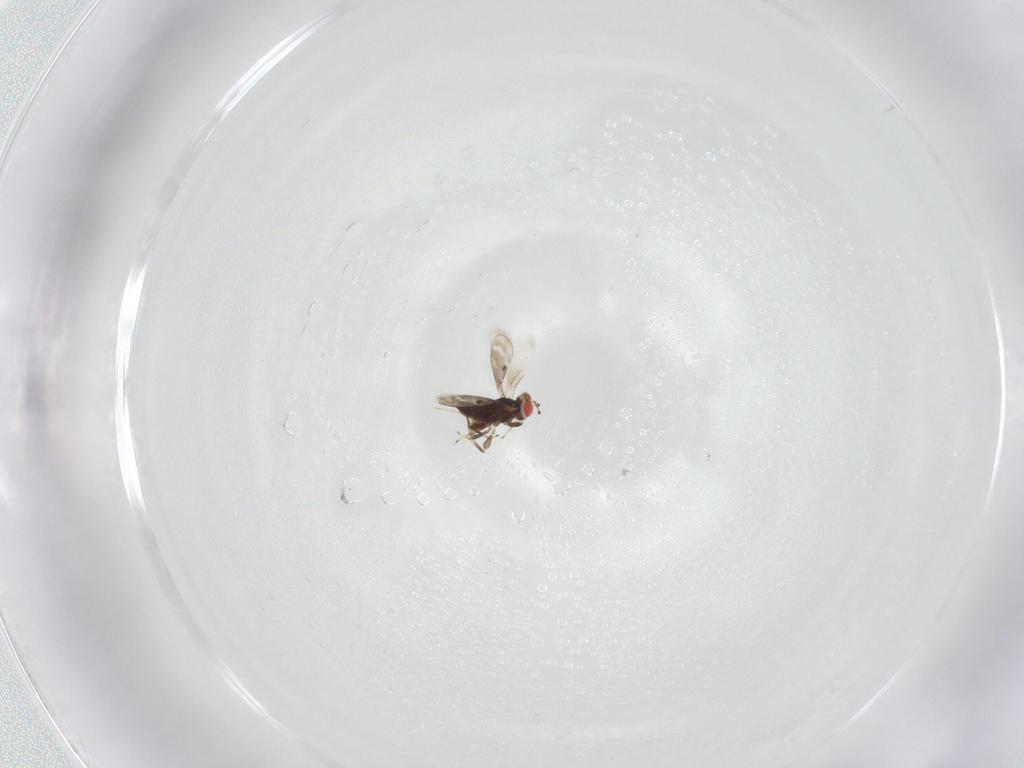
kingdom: Animalia
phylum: Arthropoda
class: Insecta
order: Hymenoptera
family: Azotidae
